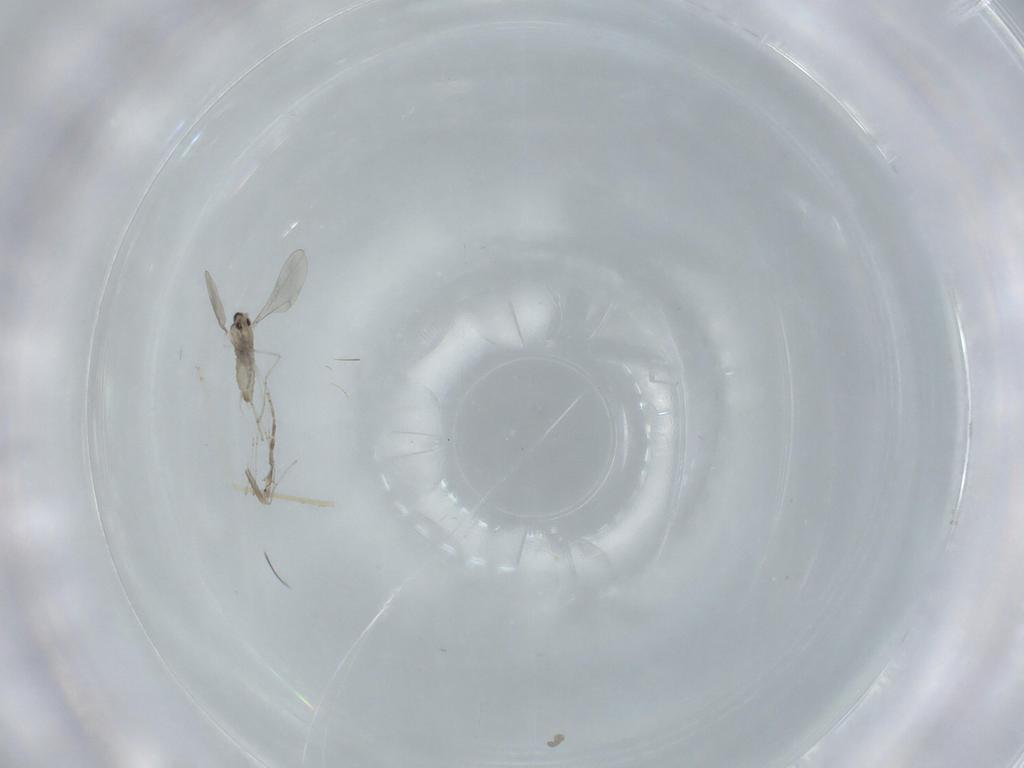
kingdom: Animalia
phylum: Arthropoda
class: Insecta
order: Diptera
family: Ceratopogonidae
